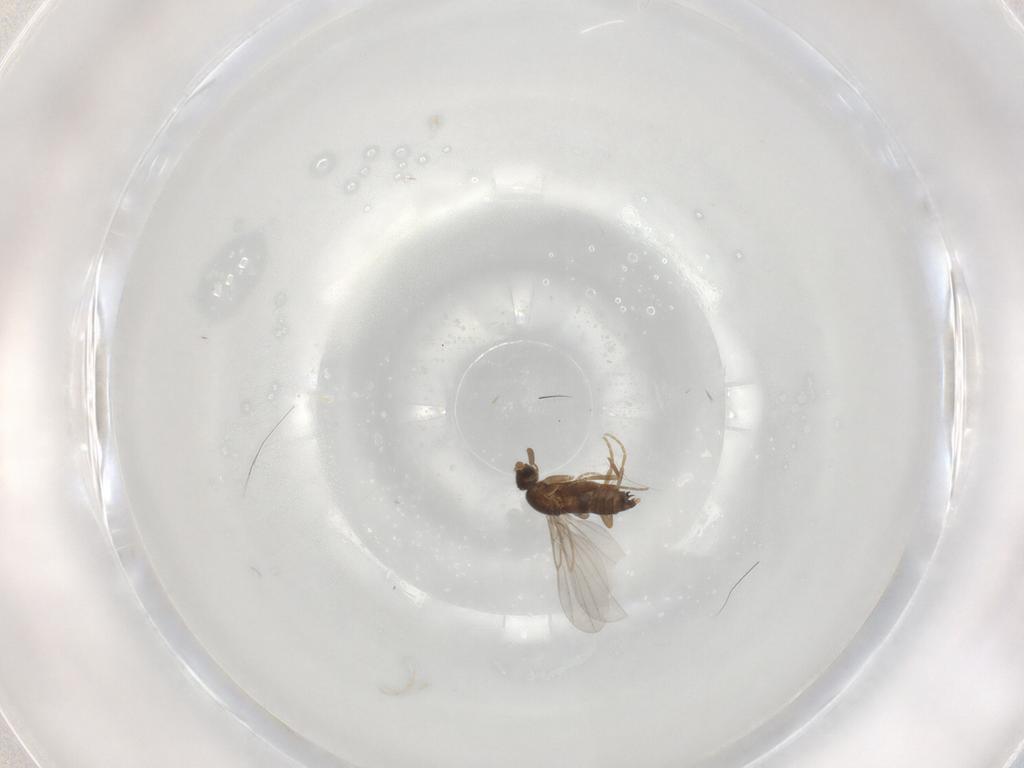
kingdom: Animalia
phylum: Arthropoda
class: Insecta
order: Diptera
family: Phoridae
